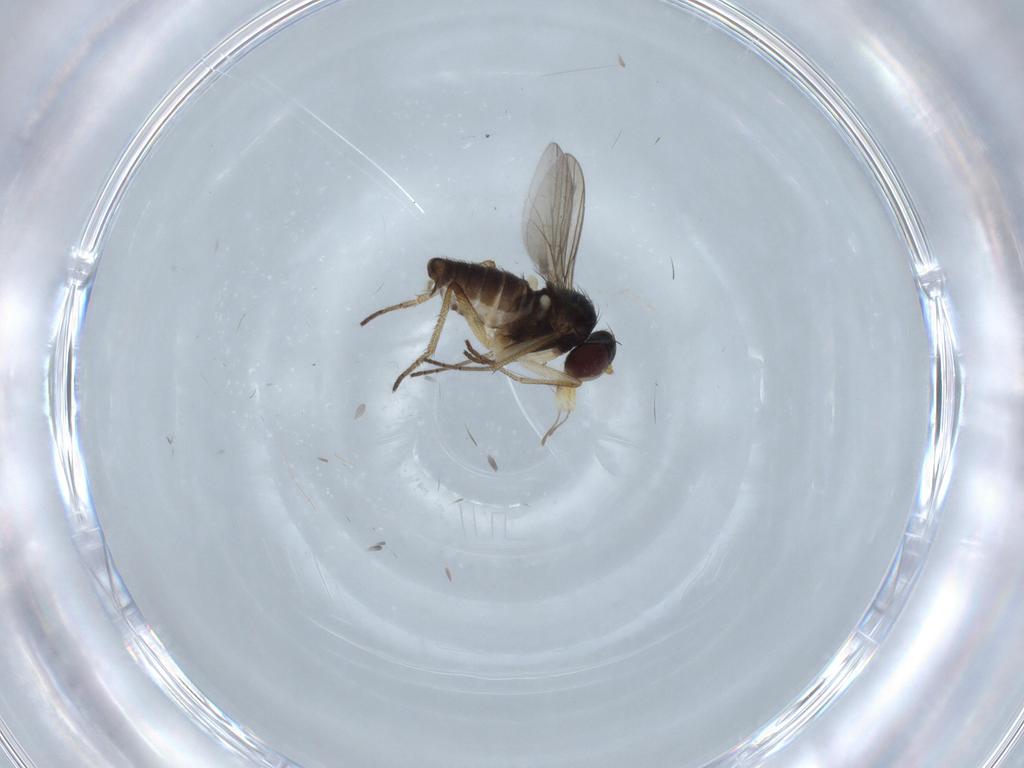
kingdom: Animalia
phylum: Arthropoda
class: Insecta
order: Diptera
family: Dolichopodidae
